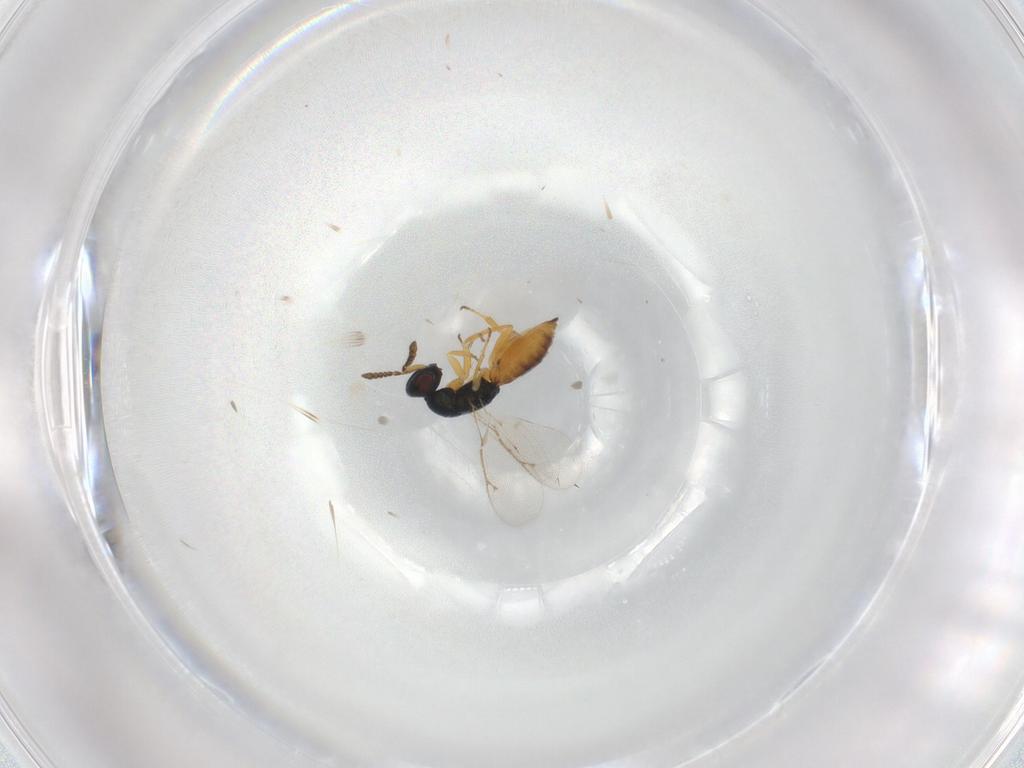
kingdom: Animalia
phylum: Arthropoda
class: Insecta
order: Hymenoptera
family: Eulophidae
